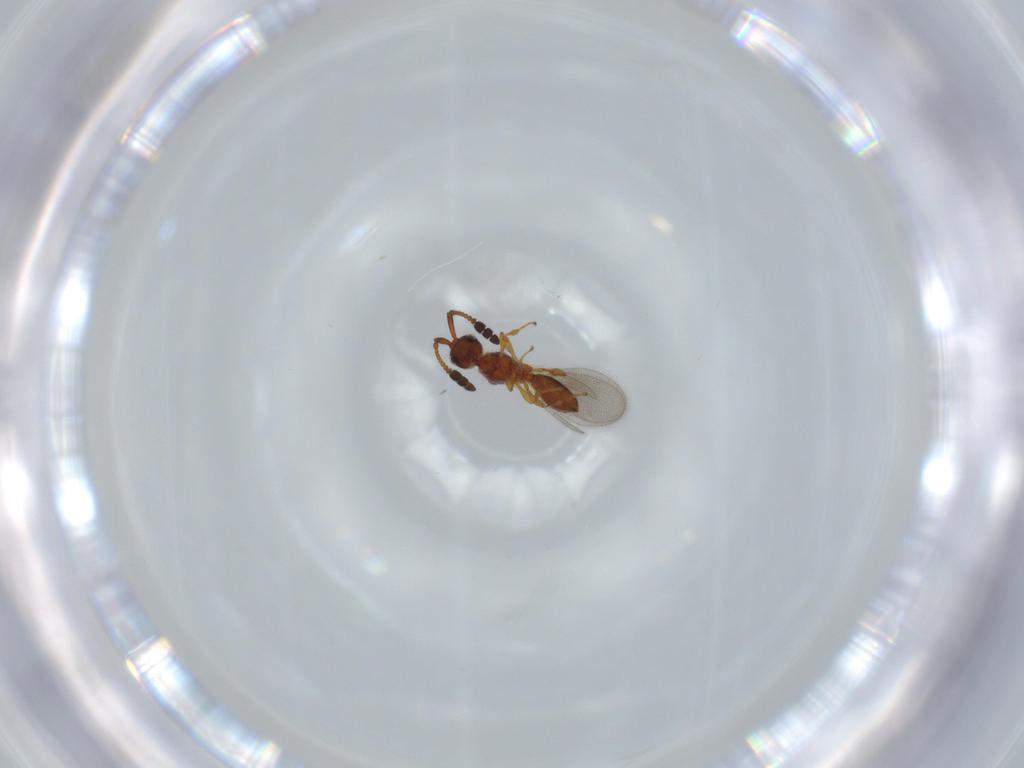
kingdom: Animalia
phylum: Arthropoda
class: Insecta
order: Hymenoptera
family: Diapriidae
